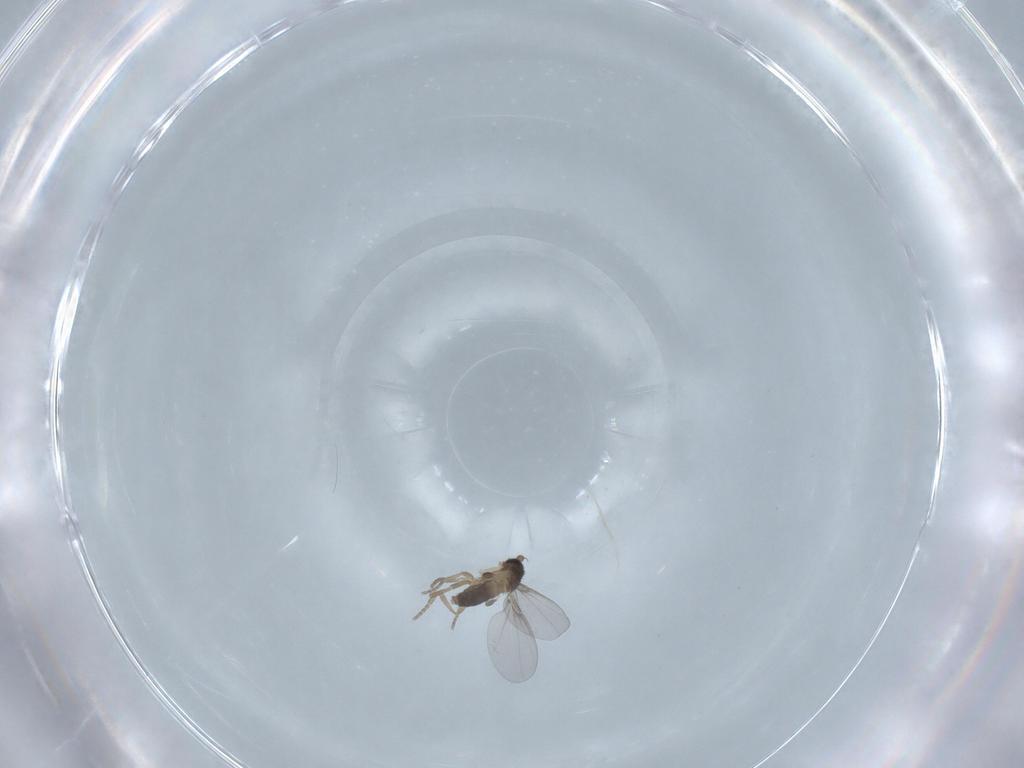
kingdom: Animalia
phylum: Arthropoda
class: Insecta
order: Diptera
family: Phoridae
